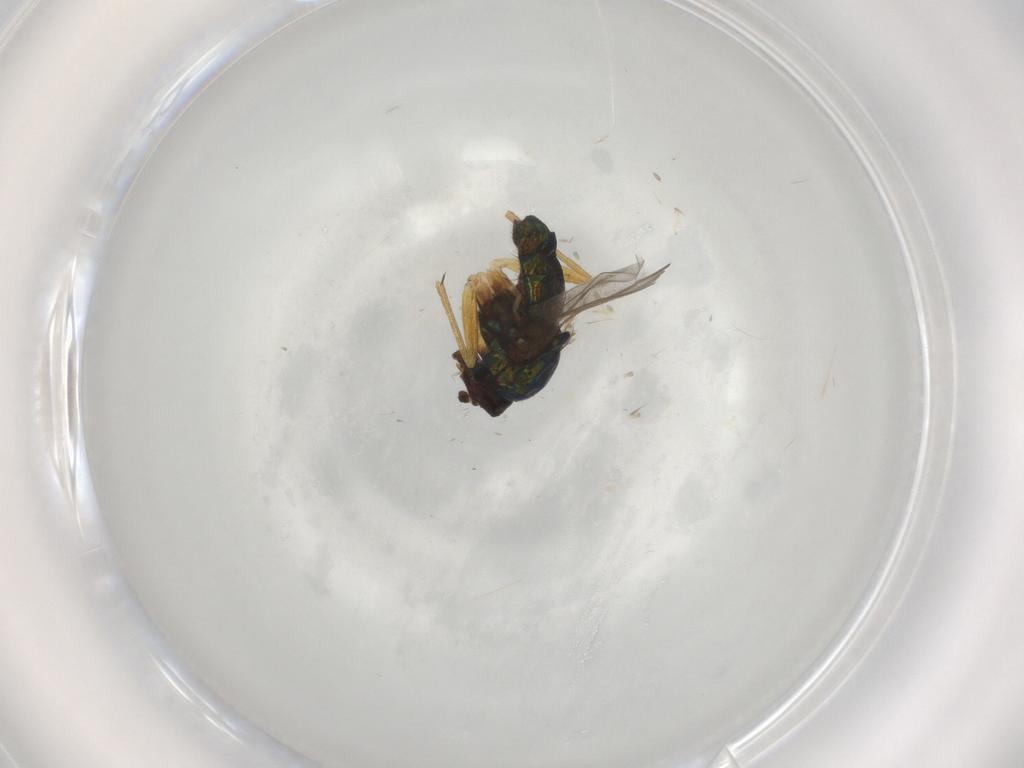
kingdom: Animalia
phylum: Arthropoda
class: Insecta
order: Diptera
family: Dolichopodidae
